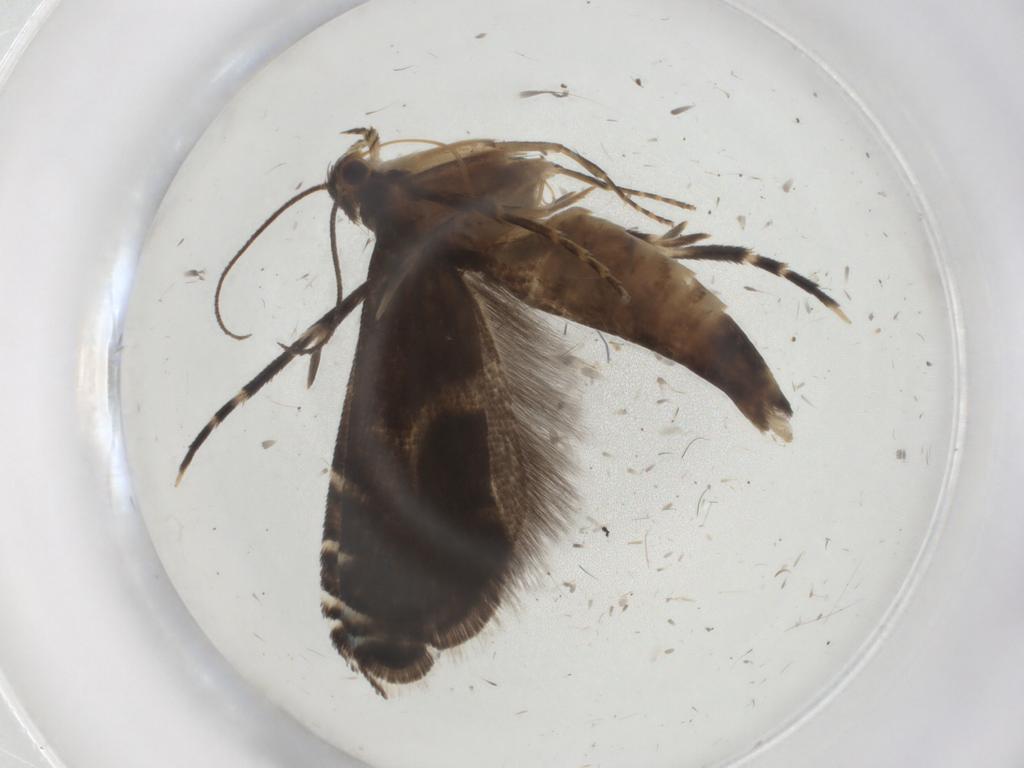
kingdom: Animalia
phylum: Arthropoda
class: Insecta
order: Lepidoptera
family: Glyphipterigidae
